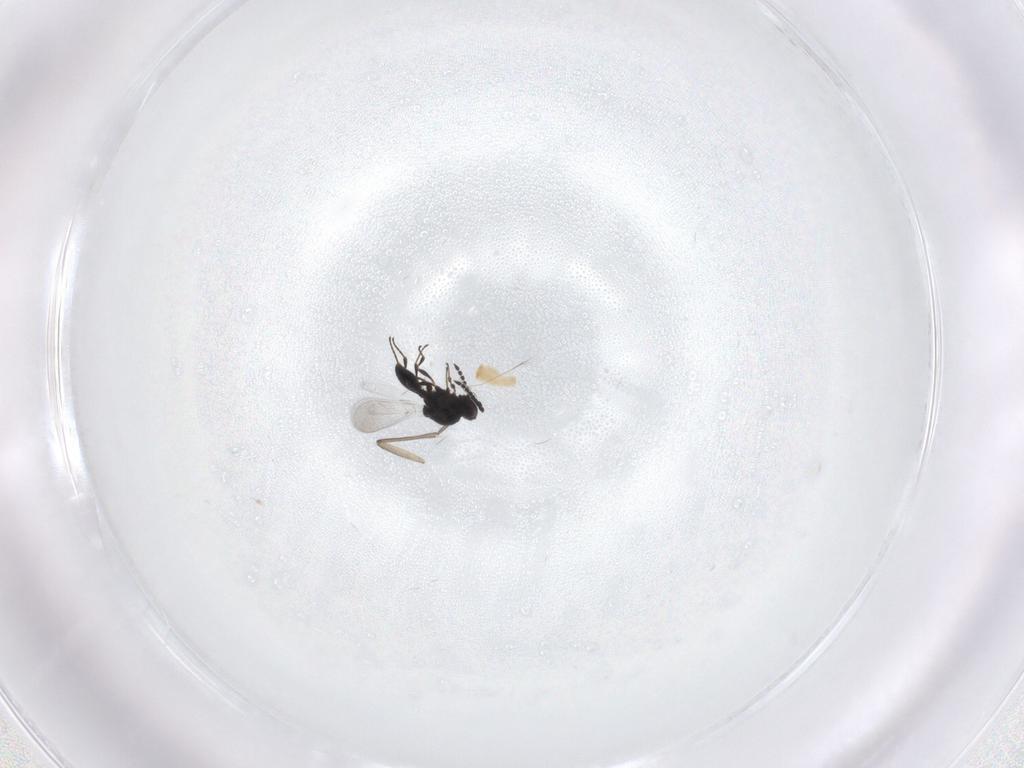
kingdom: Animalia
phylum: Arthropoda
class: Insecta
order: Hymenoptera
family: Platygastridae
